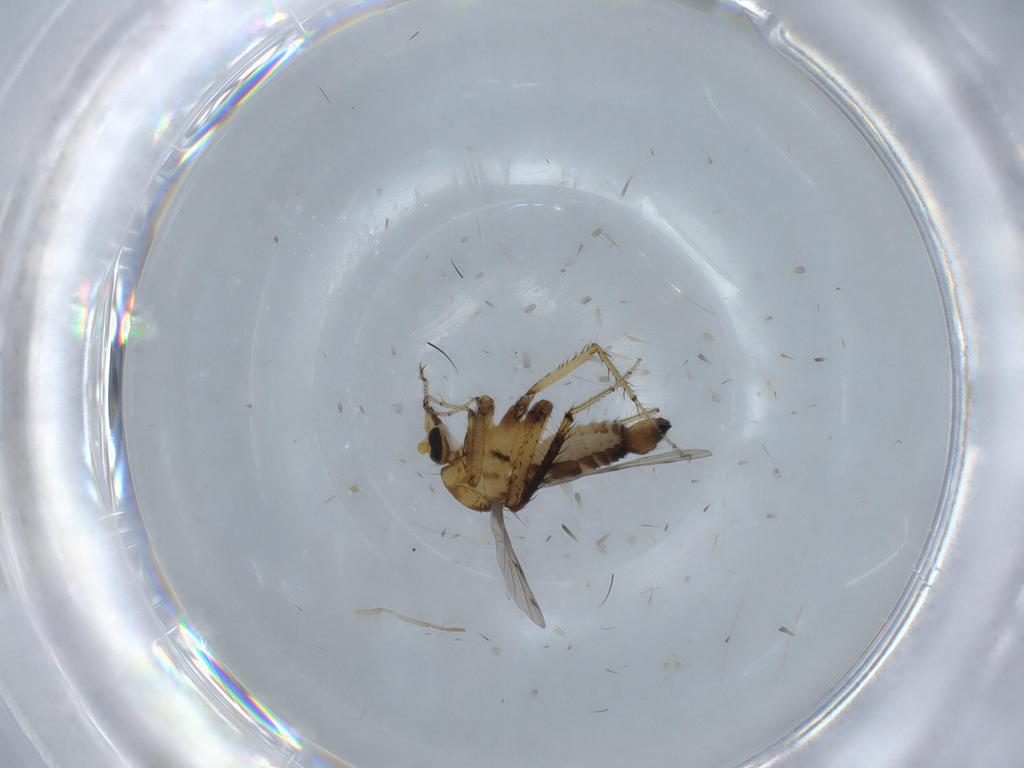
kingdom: Animalia
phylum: Arthropoda
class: Insecta
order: Diptera
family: Ceratopogonidae
